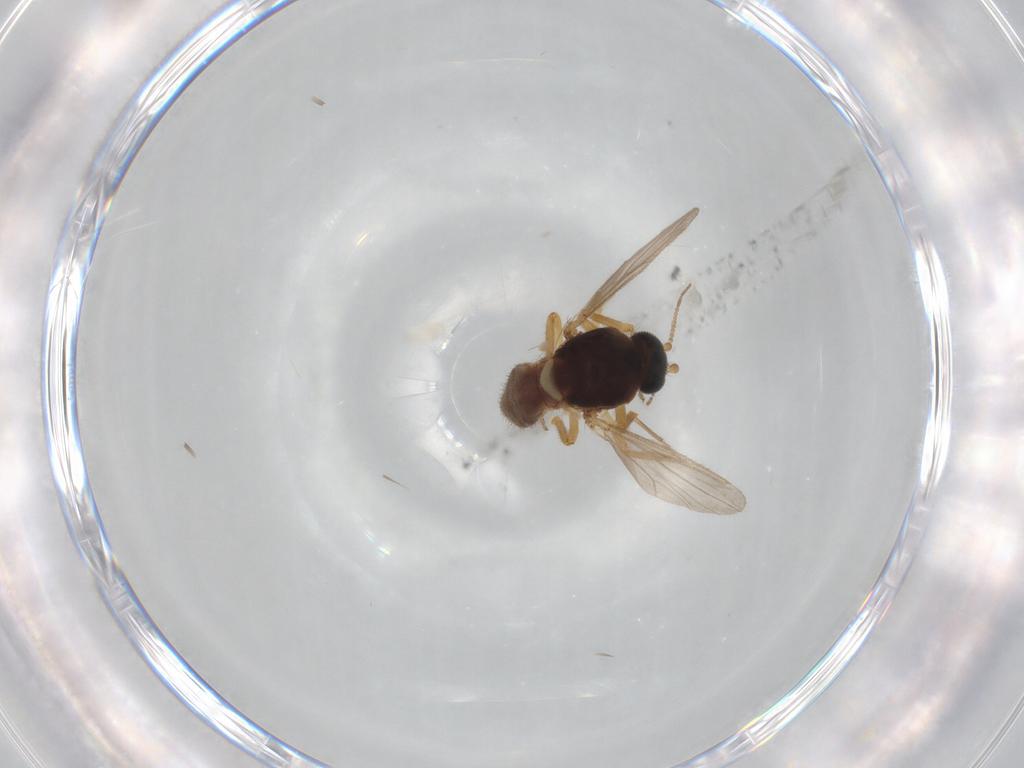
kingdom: Animalia
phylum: Arthropoda
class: Insecta
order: Diptera
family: Ceratopogonidae
